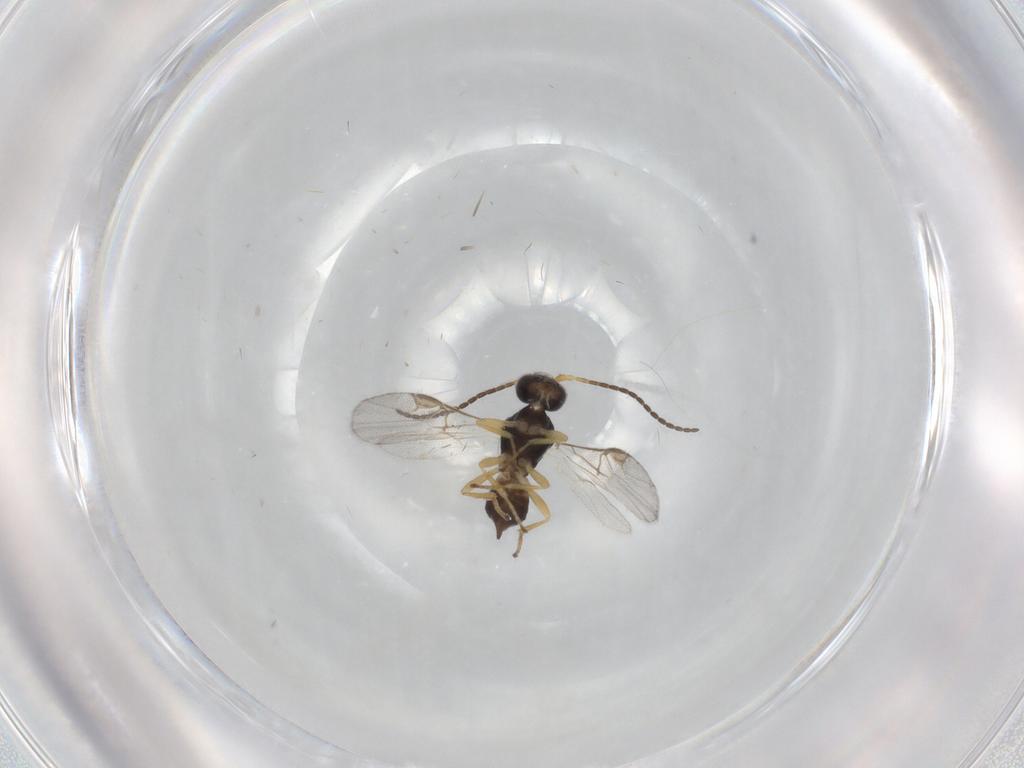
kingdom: Animalia
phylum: Arthropoda
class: Insecta
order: Hymenoptera
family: Braconidae
